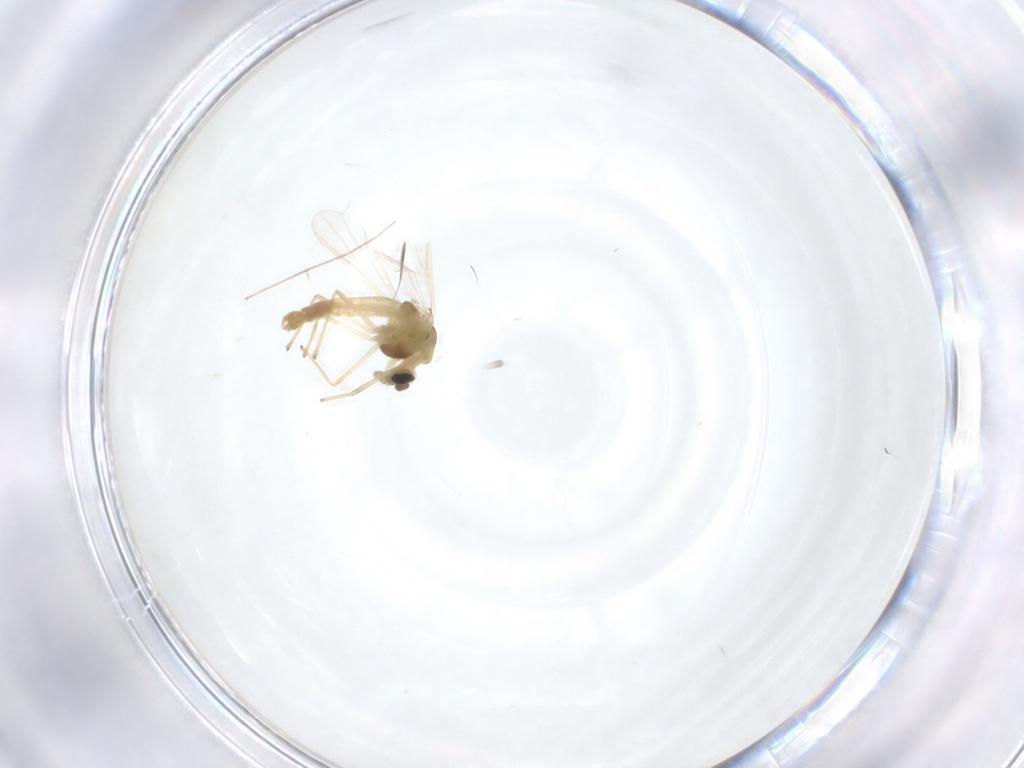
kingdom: Animalia
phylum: Arthropoda
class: Insecta
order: Diptera
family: Chironomidae
